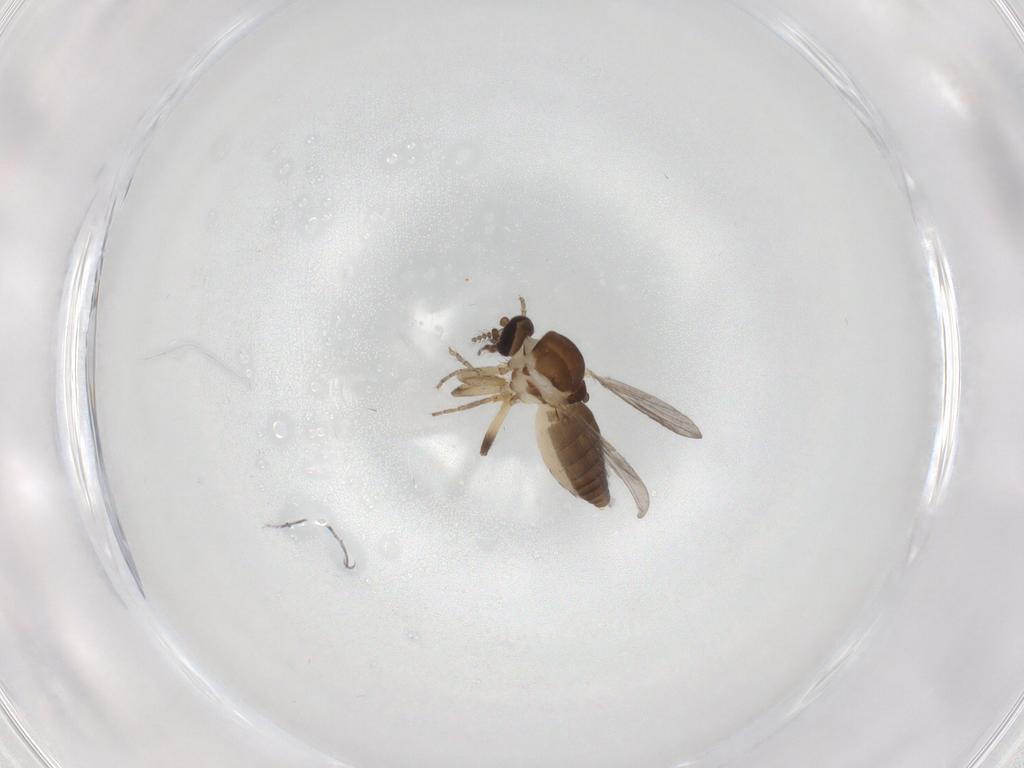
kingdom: Animalia
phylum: Arthropoda
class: Insecta
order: Diptera
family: Ceratopogonidae
